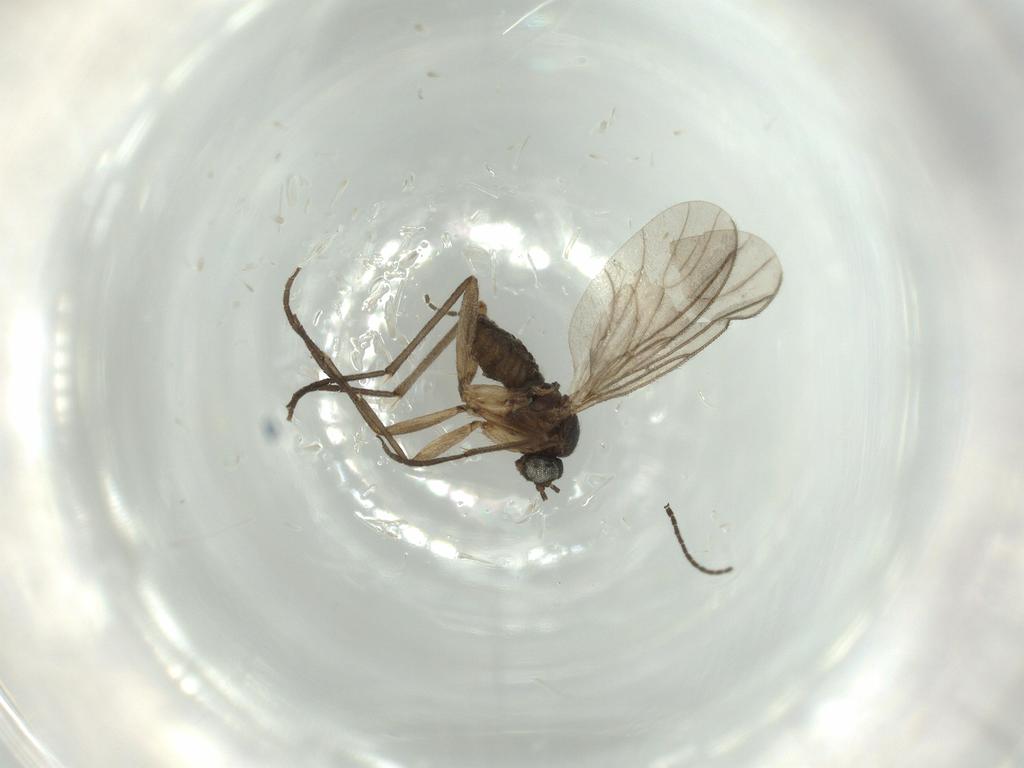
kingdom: Animalia
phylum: Arthropoda
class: Insecta
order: Diptera
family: Sciaridae
